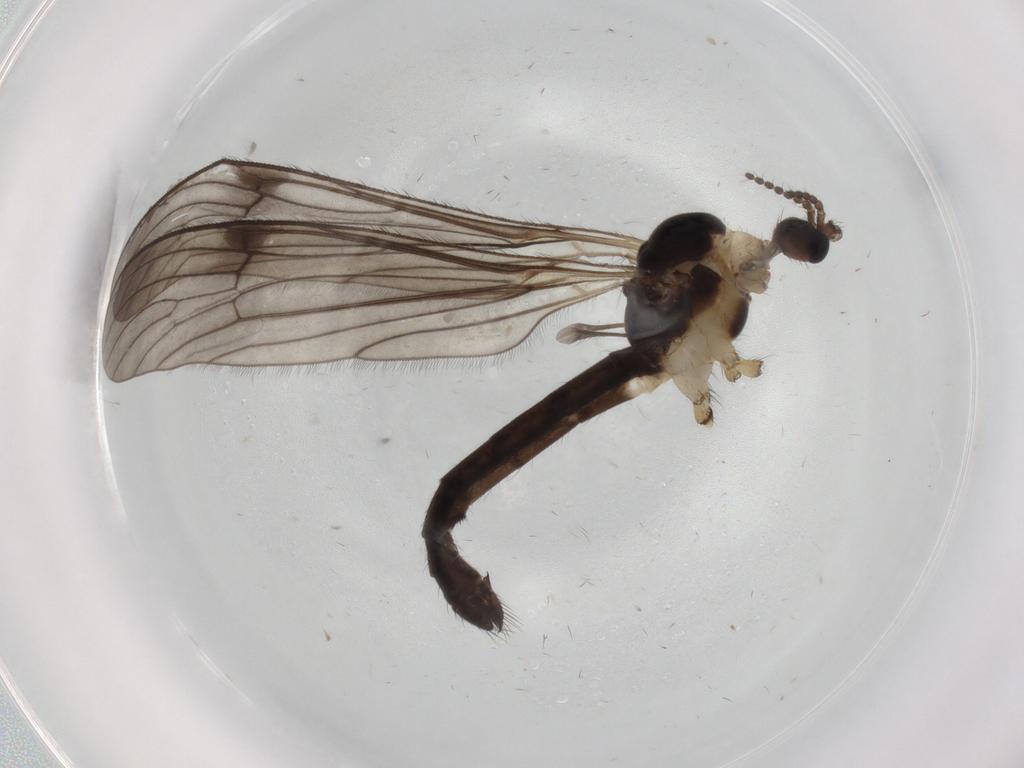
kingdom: Animalia
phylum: Arthropoda
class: Insecta
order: Diptera
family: Limoniidae
